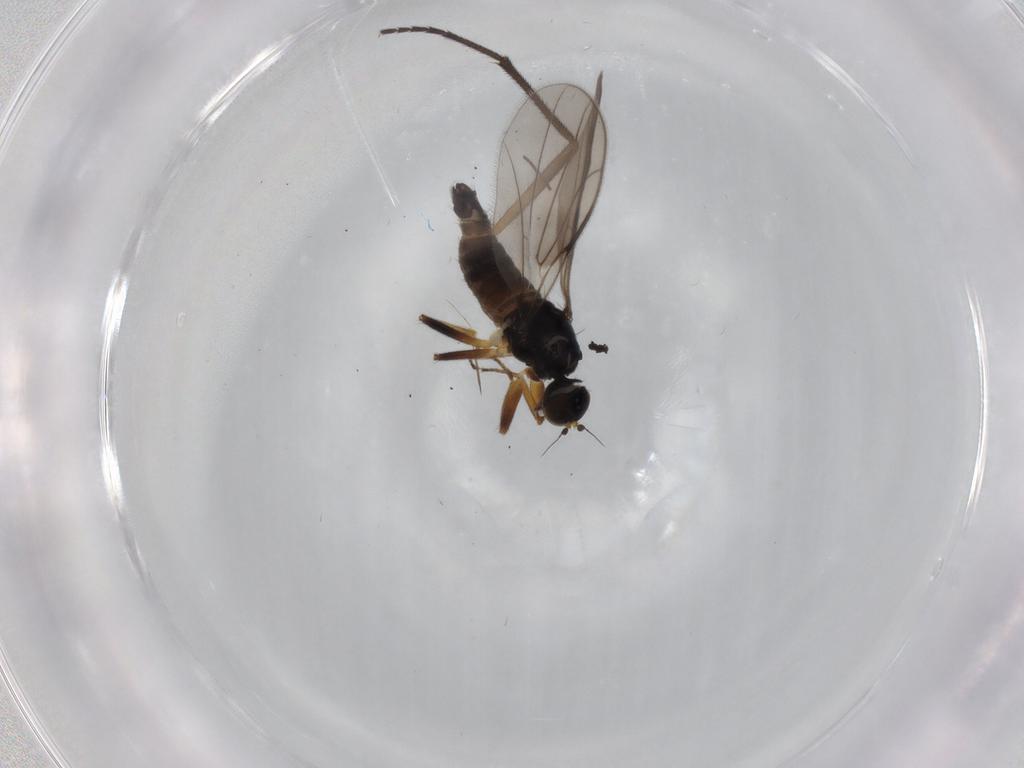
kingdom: Animalia
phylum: Arthropoda
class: Insecta
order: Diptera
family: Hybotidae
